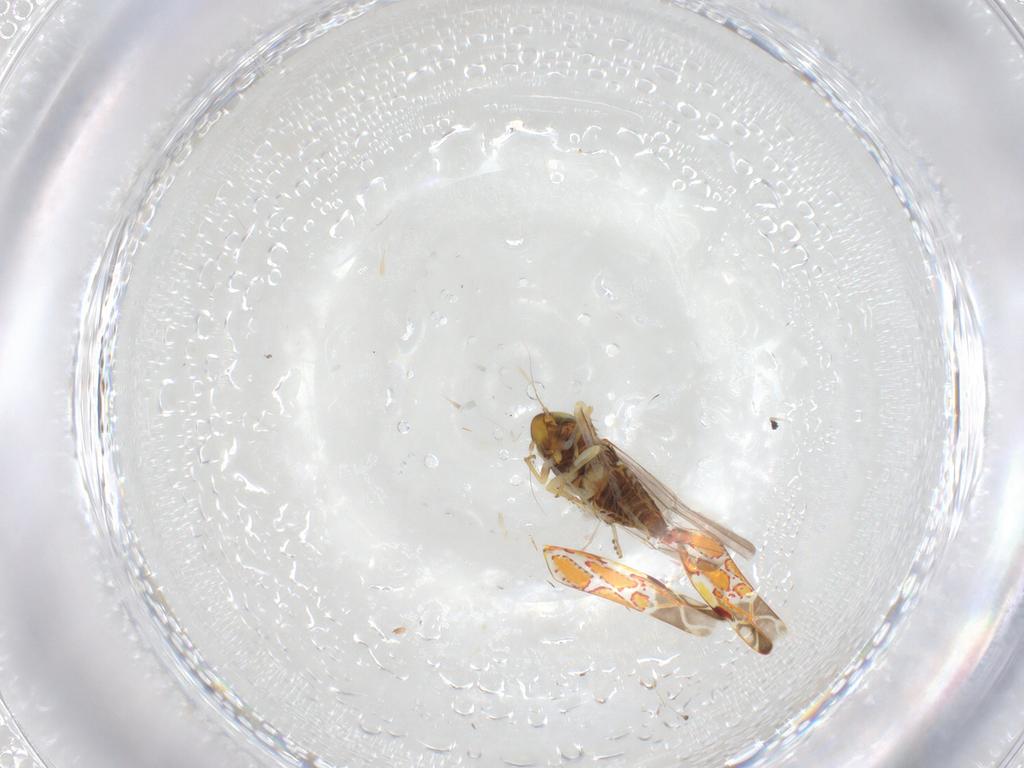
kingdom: Animalia
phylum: Arthropoda
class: Insecta
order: Hemiptera
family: Cicadellidae
